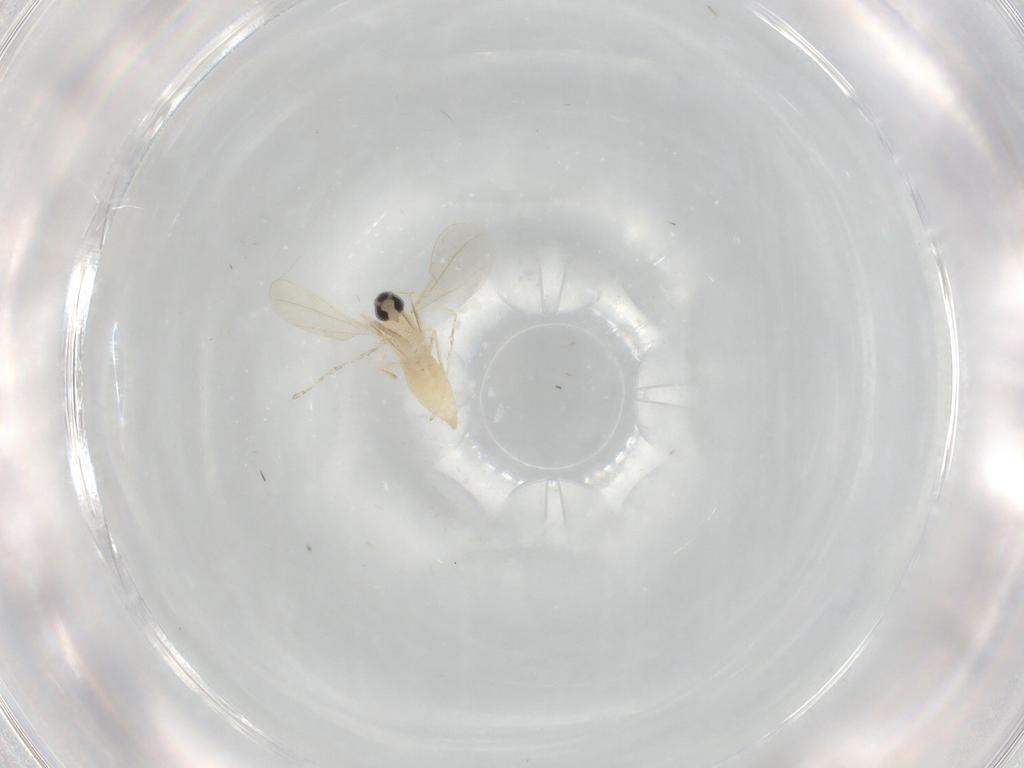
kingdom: Animalia
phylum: Arthropoda
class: Insecta
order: Diptera
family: Cecidomyiidae
